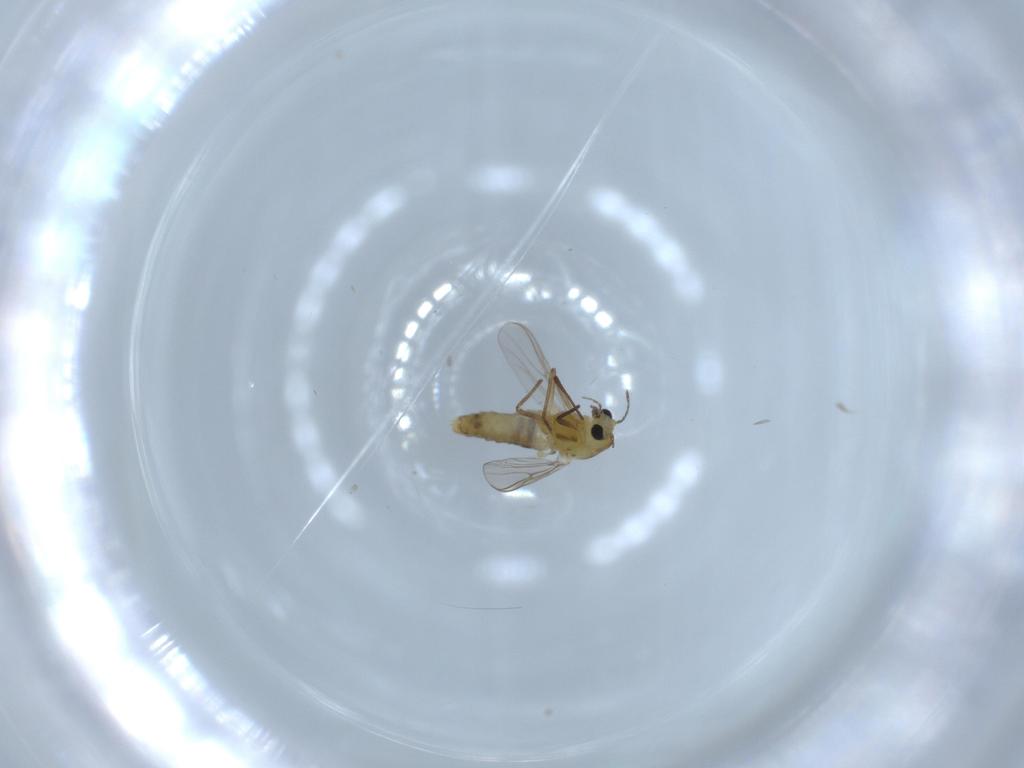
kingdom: Animalia
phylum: Arthropoda
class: Insecta
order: Diptera
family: Chironomidae
